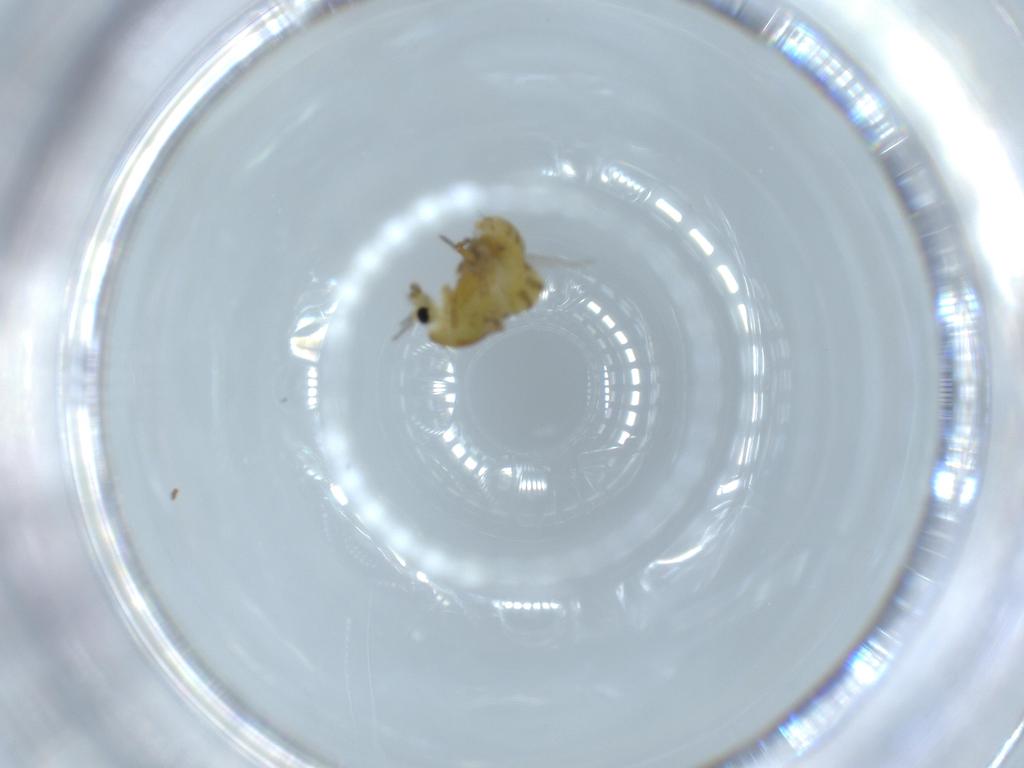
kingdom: Animalia
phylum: Arthropoda
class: Insecta
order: Diptera
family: Chironomidae
